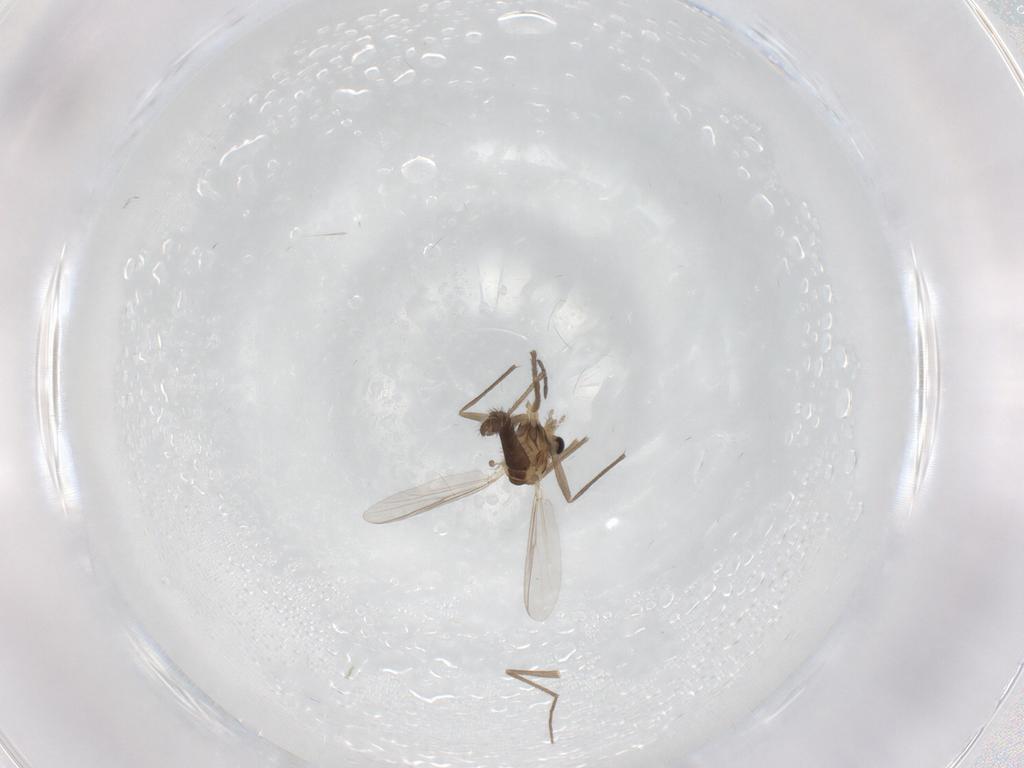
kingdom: Animalia
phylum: Arthropoda
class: Insecta
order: Diptera
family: Chironomidae
